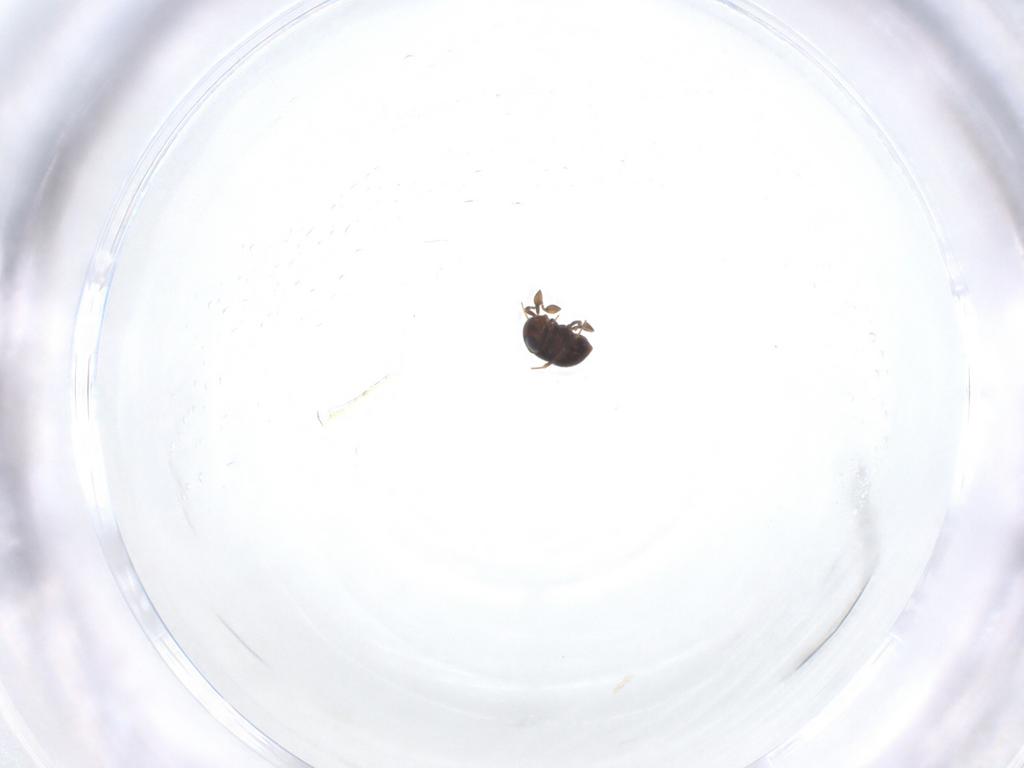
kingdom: Animalia
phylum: Arthropoda
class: Insecta
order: Hymenoptera
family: Scelionidae
